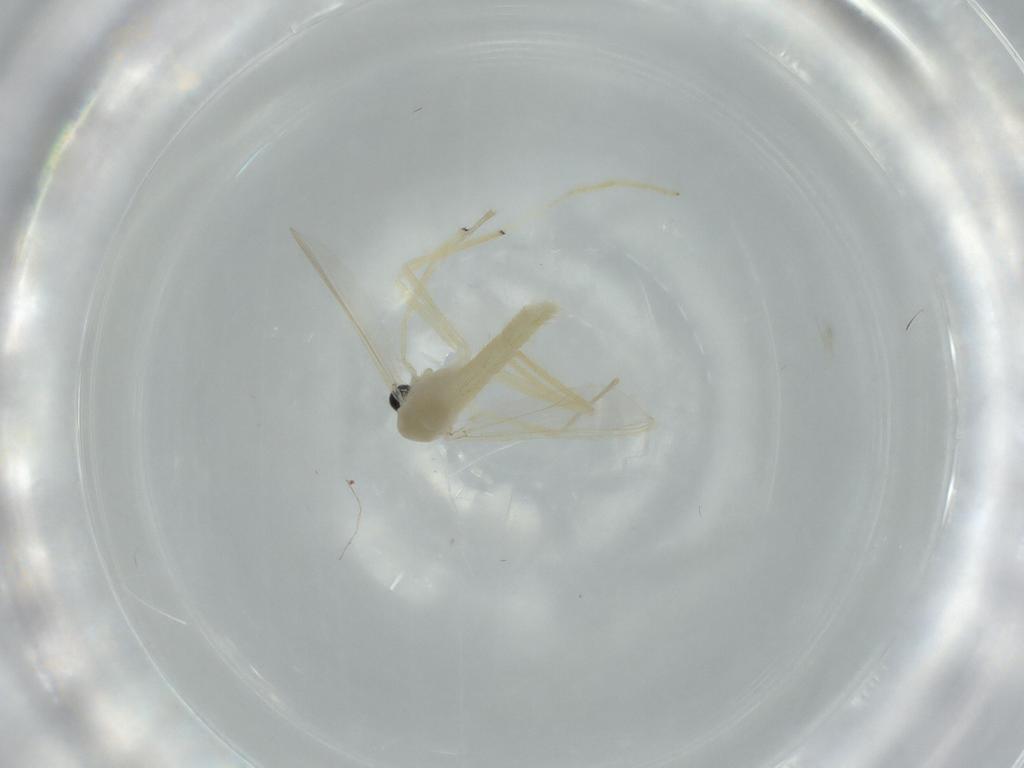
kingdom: Animalia
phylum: Arthropoda
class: Insecta
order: Diptera
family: Chironomidae
